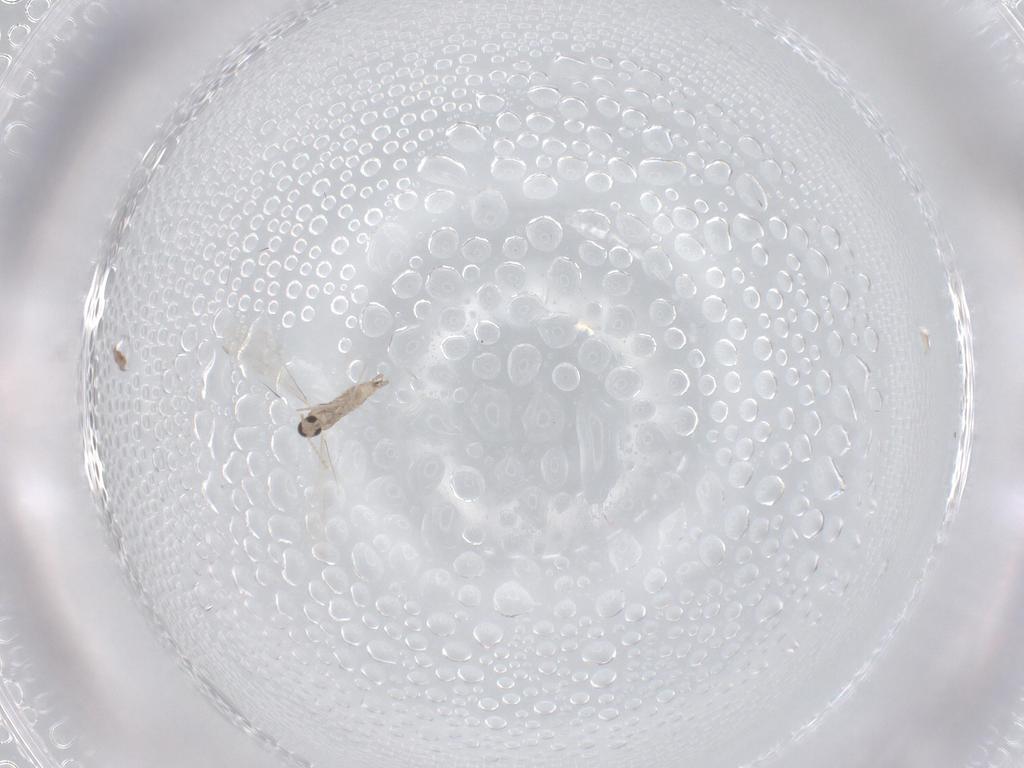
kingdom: Animalia
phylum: Arthropoda
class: Insecta
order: Diptera
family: Cecidomyiidae
